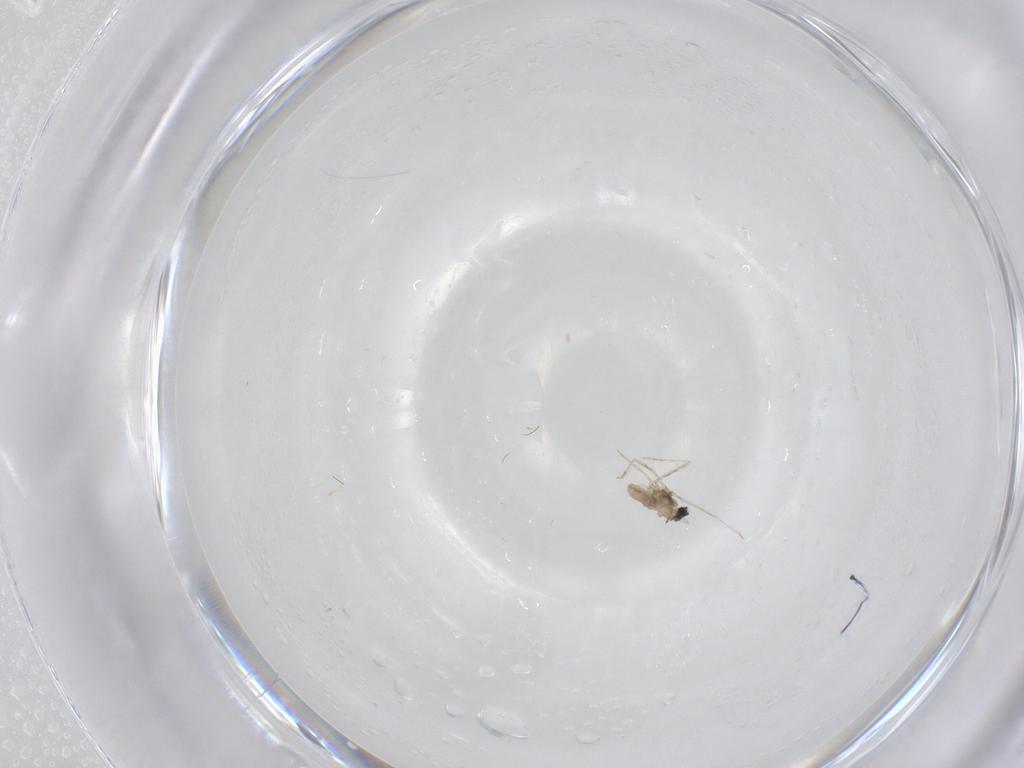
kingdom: Animalia
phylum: Arthropoda
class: Insecta
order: Diptera
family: Cecidomyiidae
